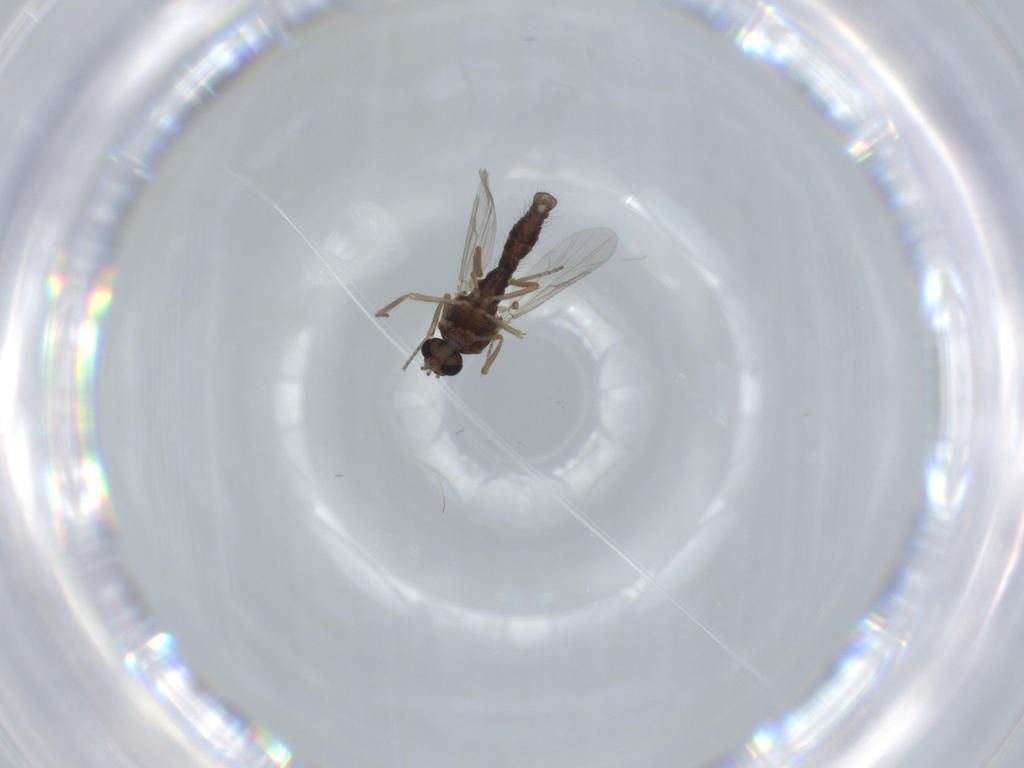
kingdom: Animalia
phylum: Arthropoda
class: Insecta
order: Diptera
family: Ceratopogonidae
